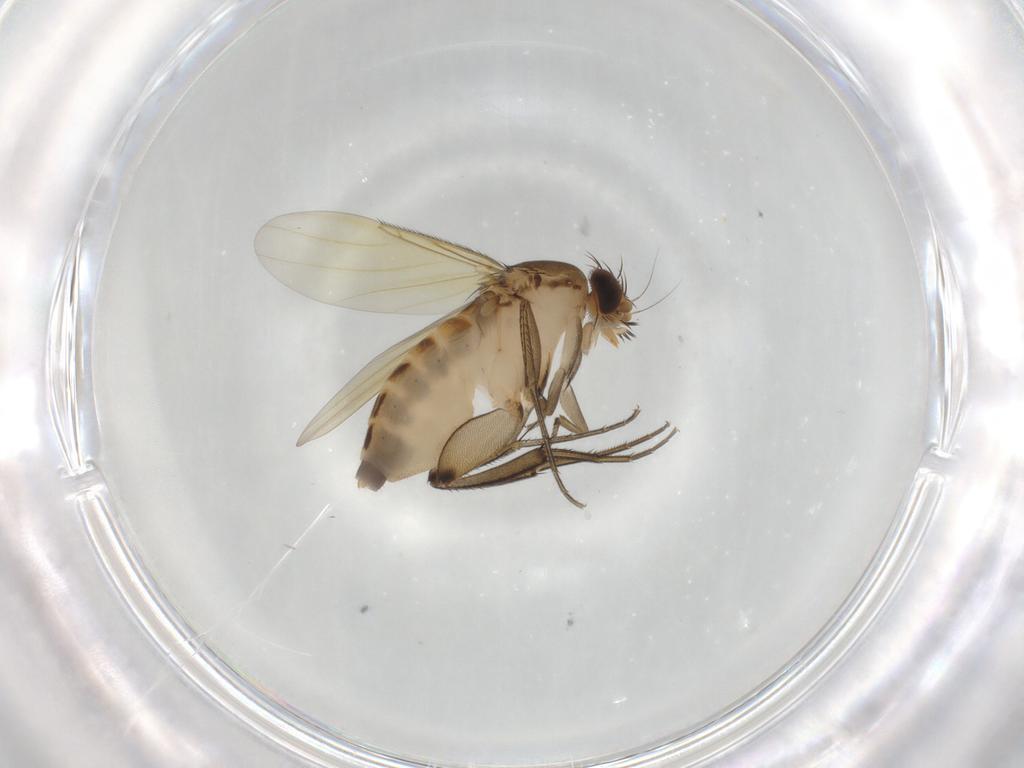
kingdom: Animalia
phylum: Arthropoda
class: Insecta
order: Diptera
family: Phoridae
